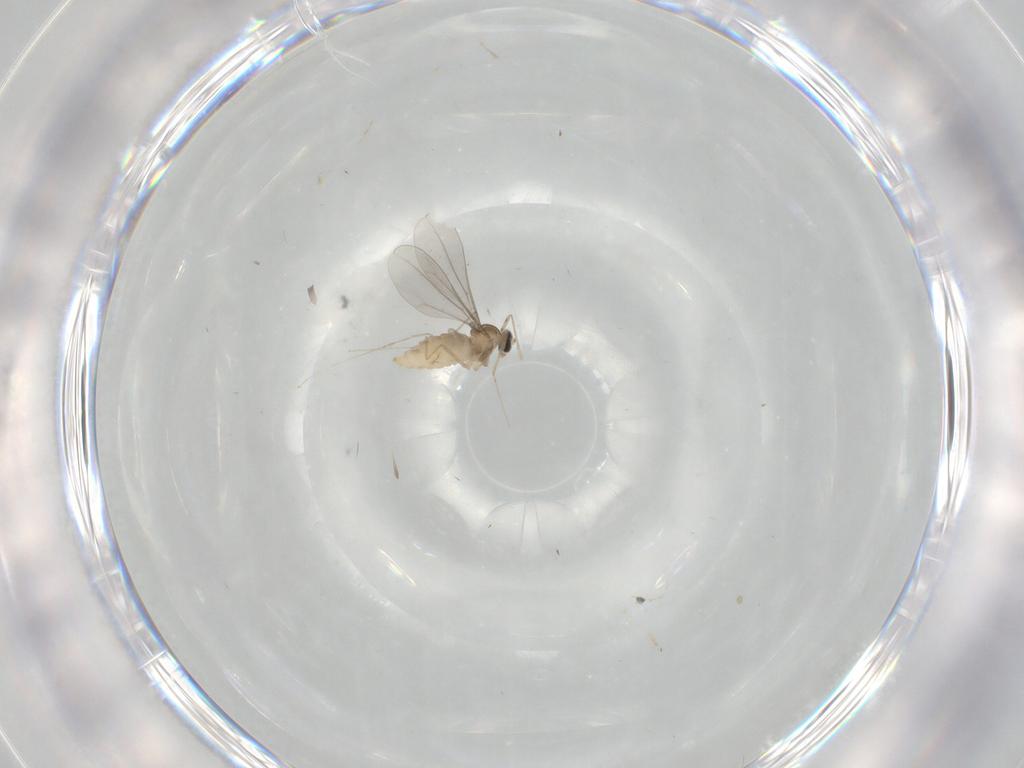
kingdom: Animalia
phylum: Arthropoda
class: Insecta
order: Diptera
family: Cecidomyiidae
